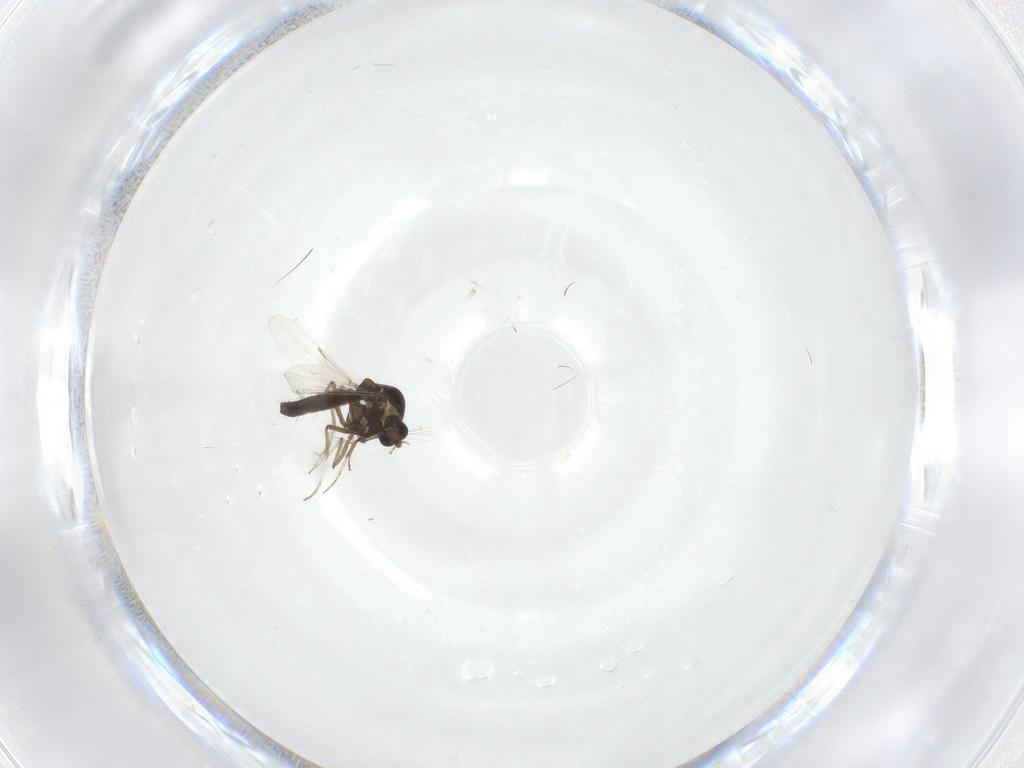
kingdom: Animalia
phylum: Arthropoda
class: Insecta
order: Diptera
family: Ceratopogonidae
